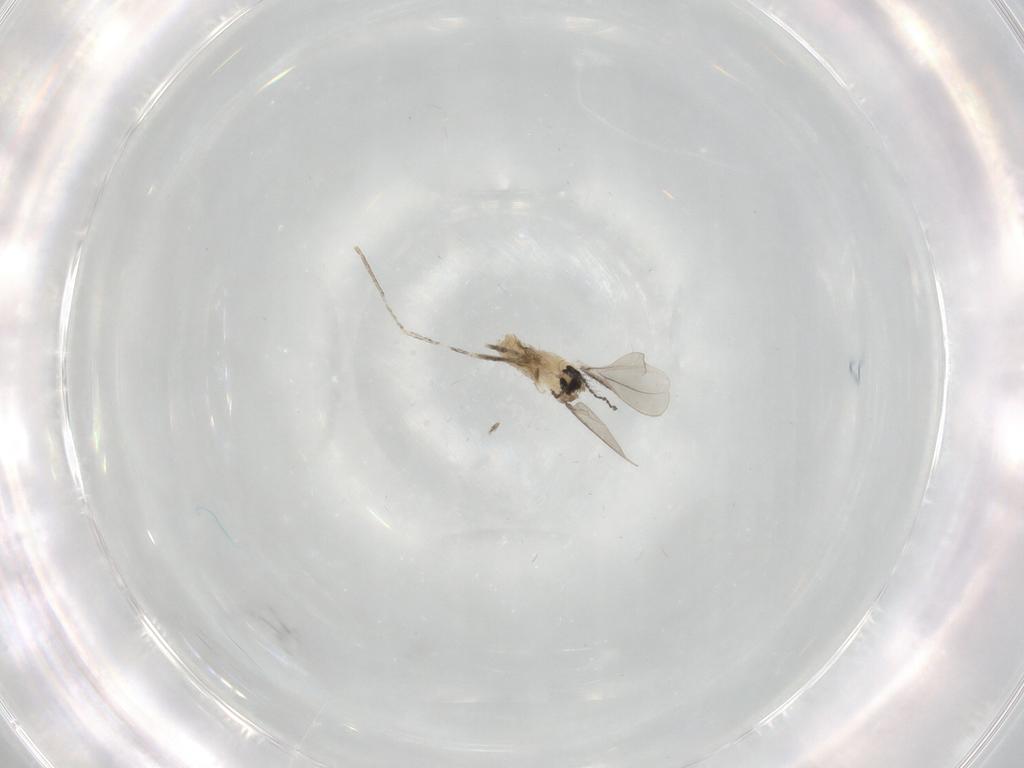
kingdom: Animalia
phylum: Arthropoda
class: Insecta
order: Diptera
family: Cecidomyiidae
